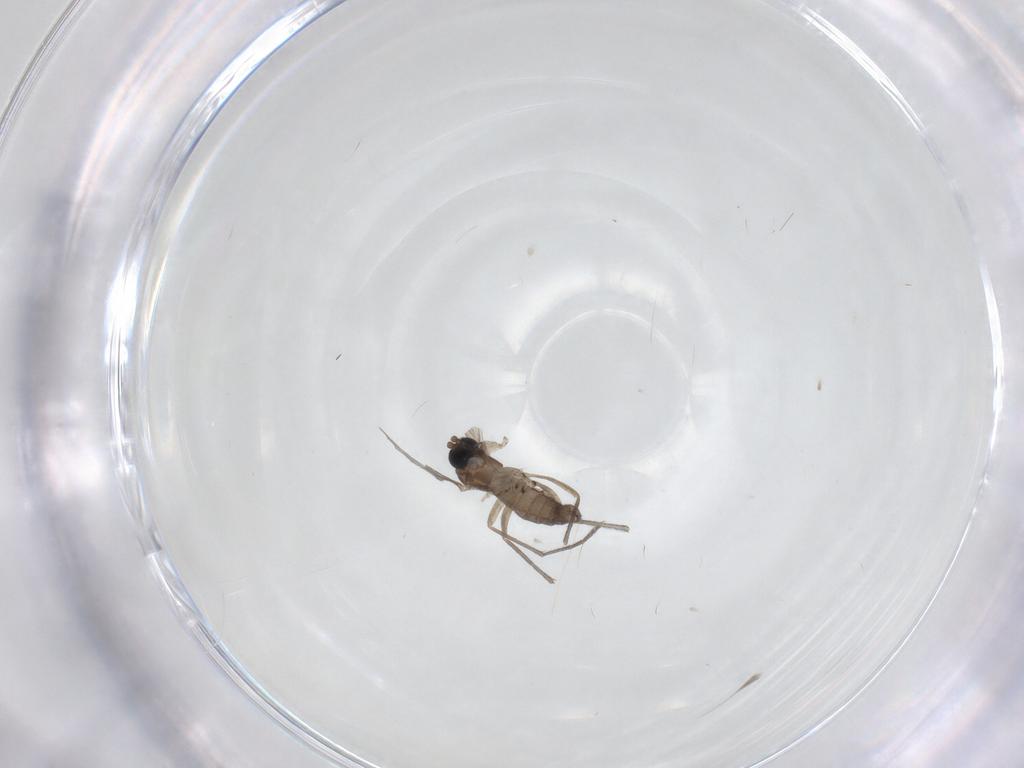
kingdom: Animalia
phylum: Arthropoda
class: Insecta
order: Diptera
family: Sciaridae
